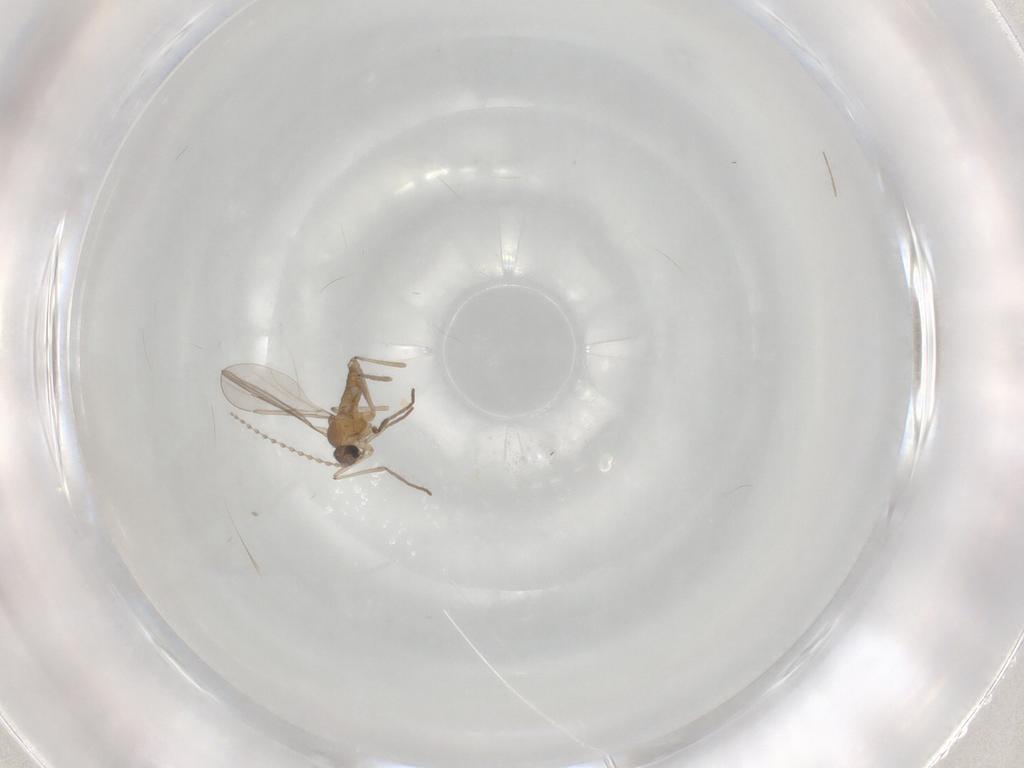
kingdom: Animalia
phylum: Arthropoda
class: Insecta
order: Diptera
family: Cecidomyiidae
